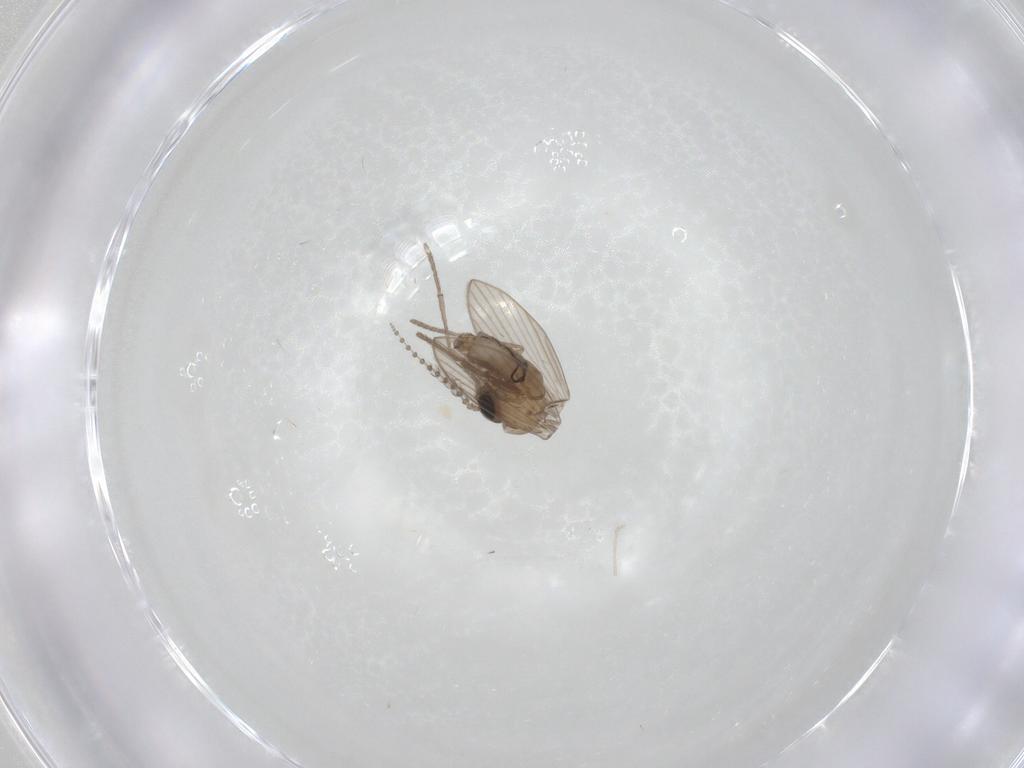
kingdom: Animalia
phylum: Arthropoda
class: Insecta
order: Diptera
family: Psychodidae
